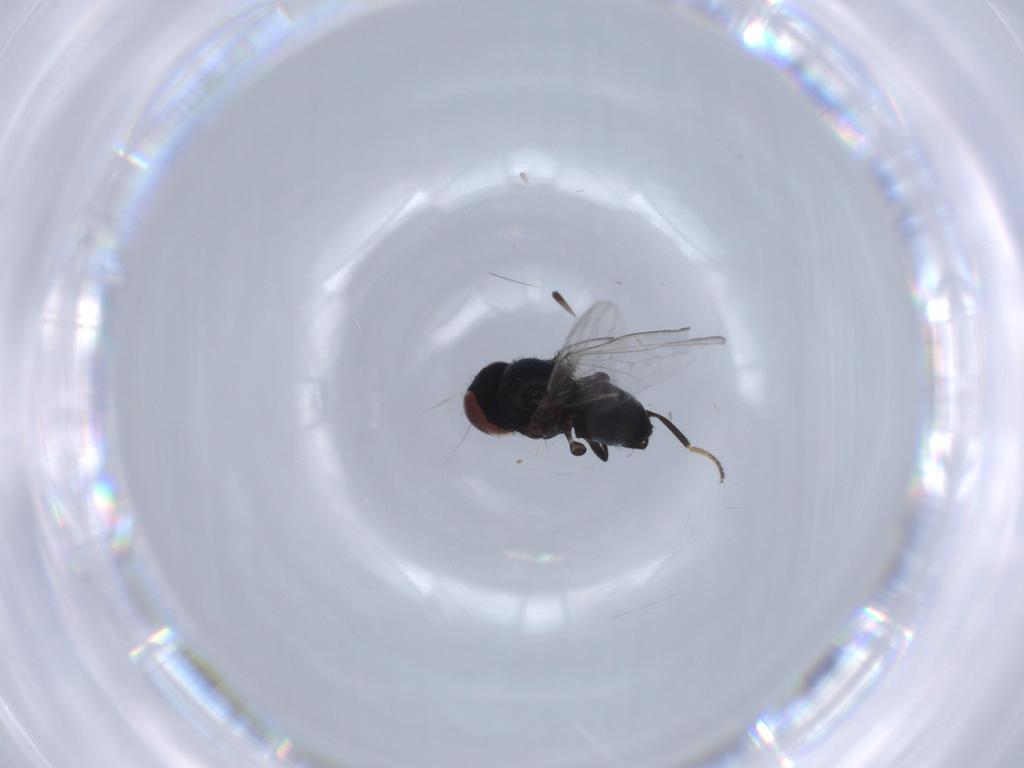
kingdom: Animalia
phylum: Arthropoda
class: Insecta
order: Diptera
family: Milichiidae
